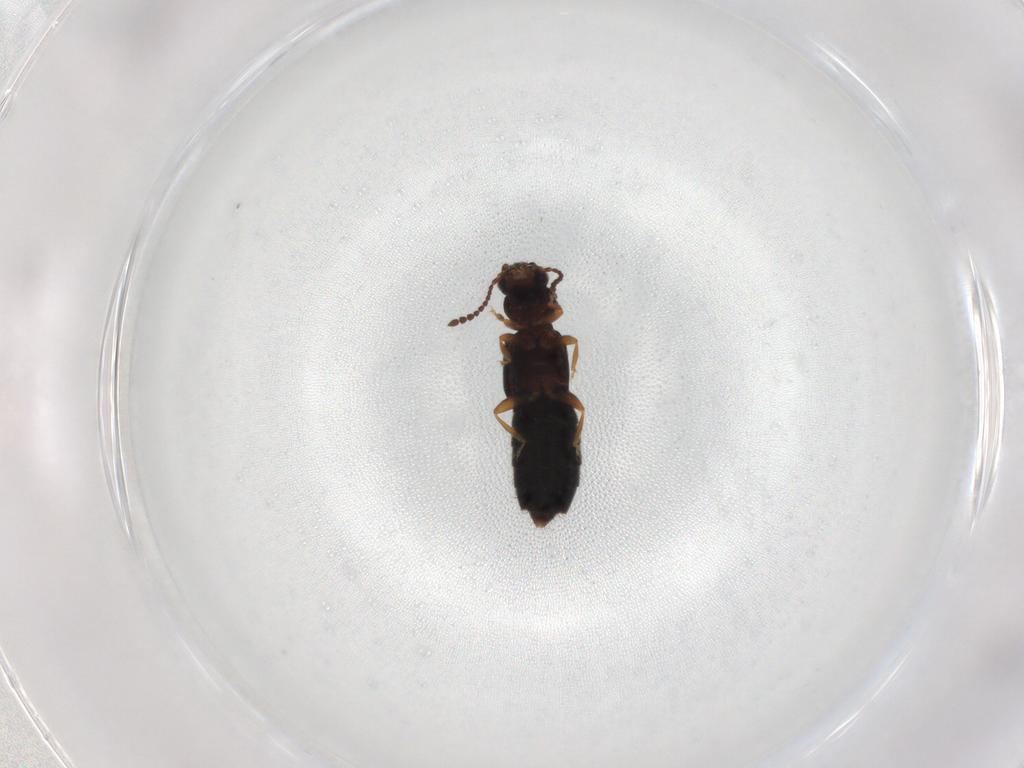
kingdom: Animalia
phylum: Arthropoda
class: Insecta
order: Coleoptera
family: Staphylinidae
